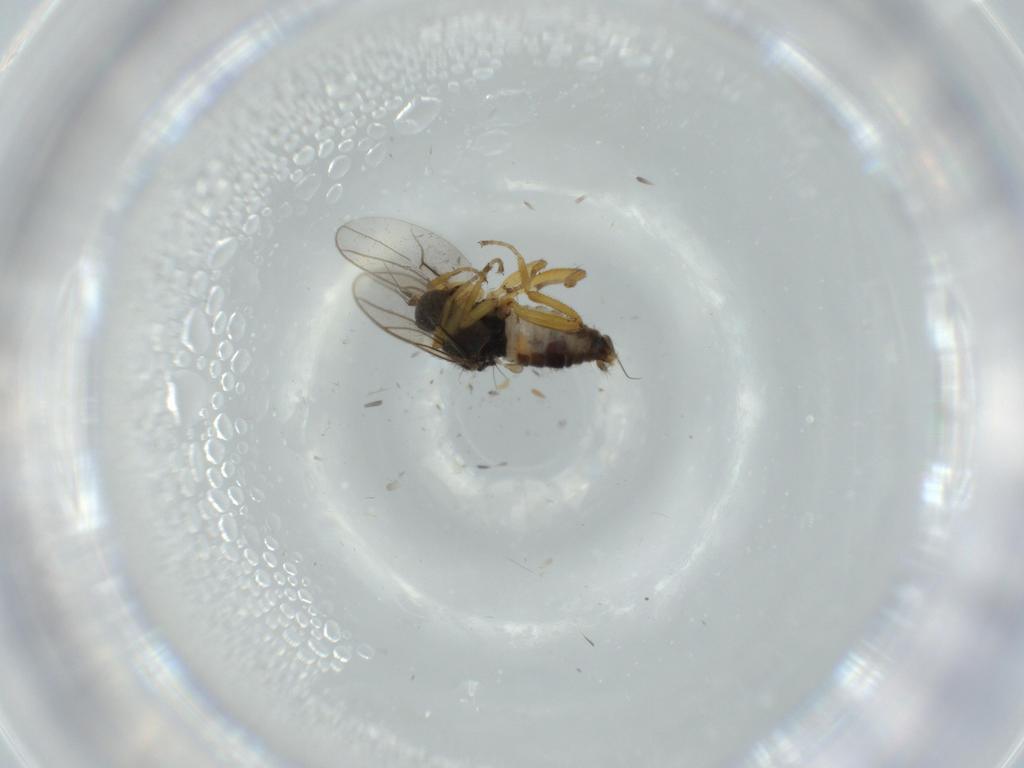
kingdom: Animalia
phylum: Arthropoda
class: Insecta
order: Diptera
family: Hybotidae
